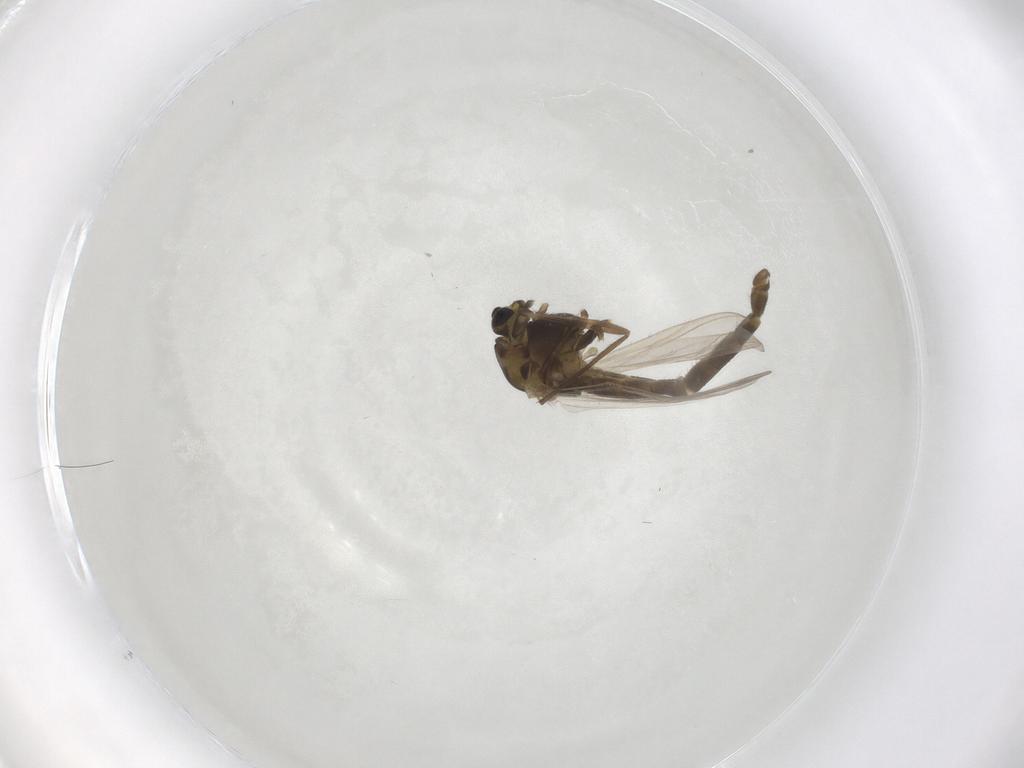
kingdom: Animalia
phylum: Arthropoda
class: Insecta
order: Diptera
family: Chironomidae
